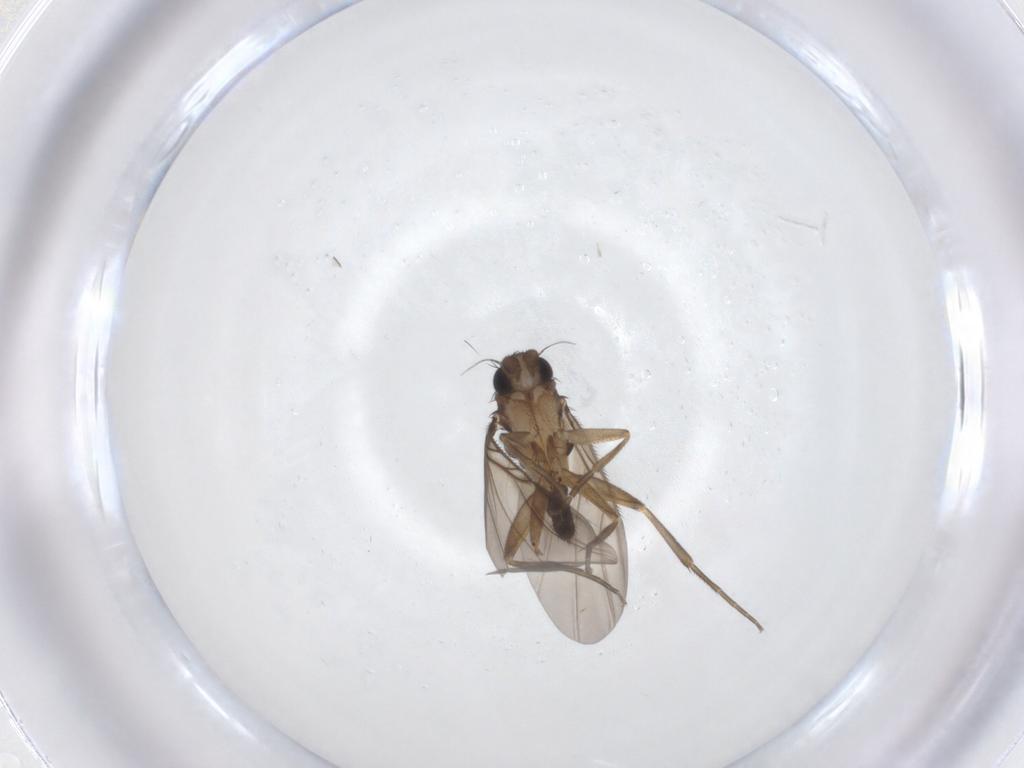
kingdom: Animalia
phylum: Arthropoda
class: Insecta
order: Diptera
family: Phoridae
